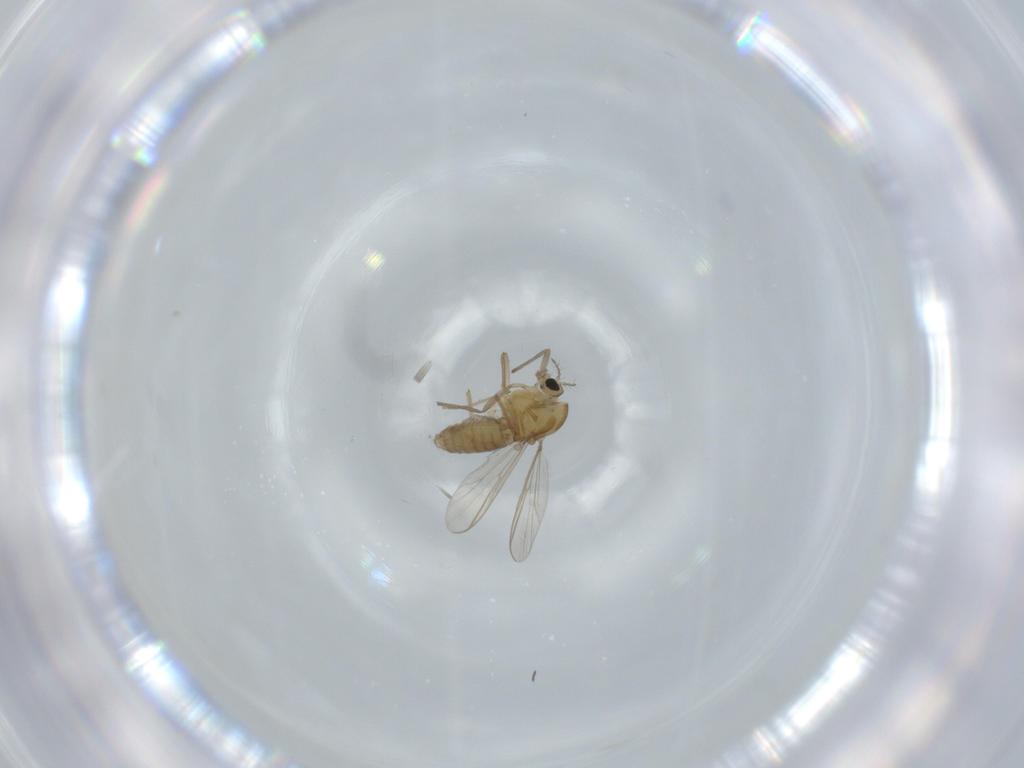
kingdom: Animalia
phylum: Arthropoda
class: Insecta
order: Diptera
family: Chironomidae
